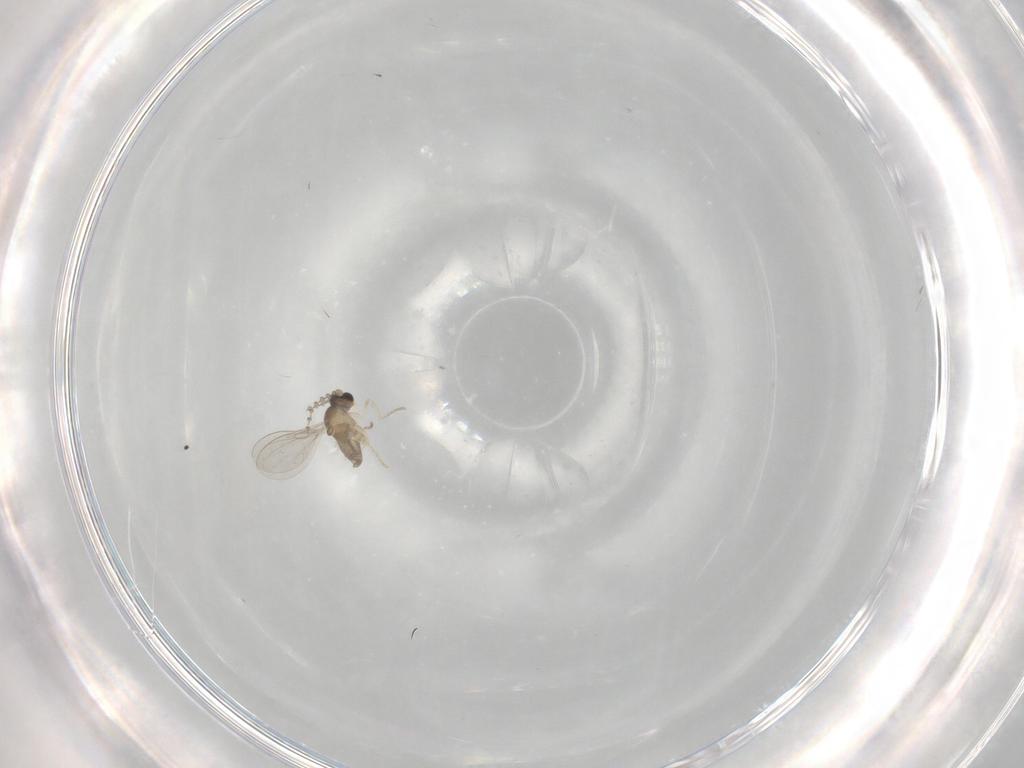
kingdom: Animalia
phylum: Arthropoda
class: Insecta
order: Diptera
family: Cecidomyiidae
